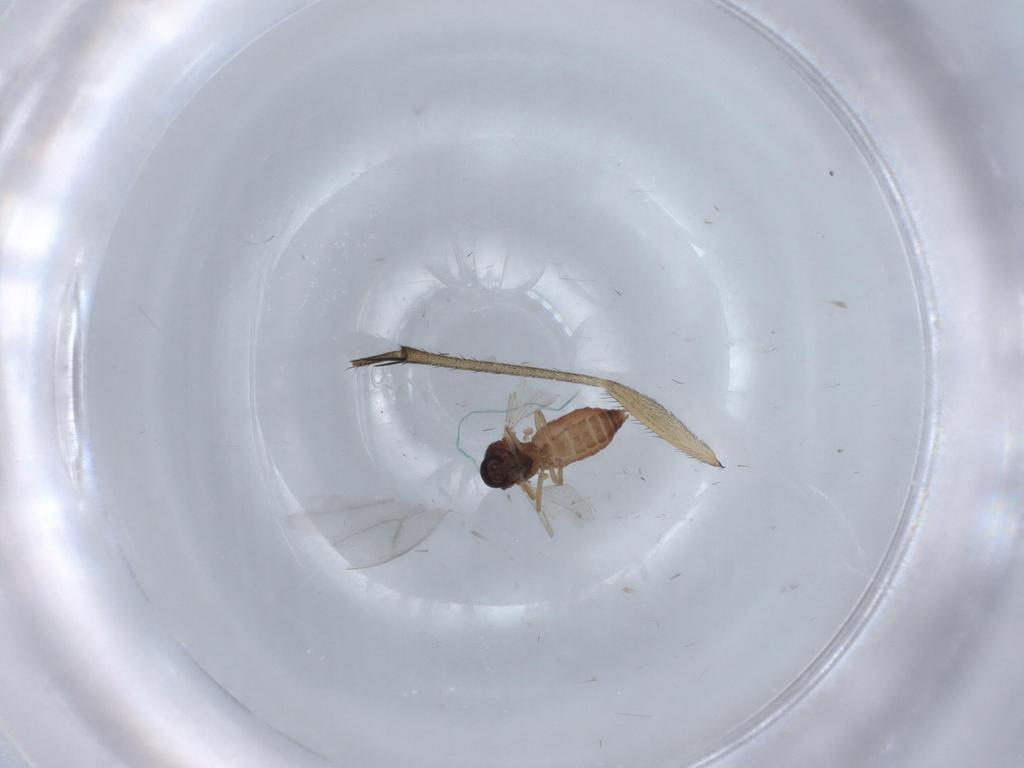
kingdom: Animalia
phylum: Arthropoda
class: Insecta
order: Diptera
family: Ceratopogonidae
